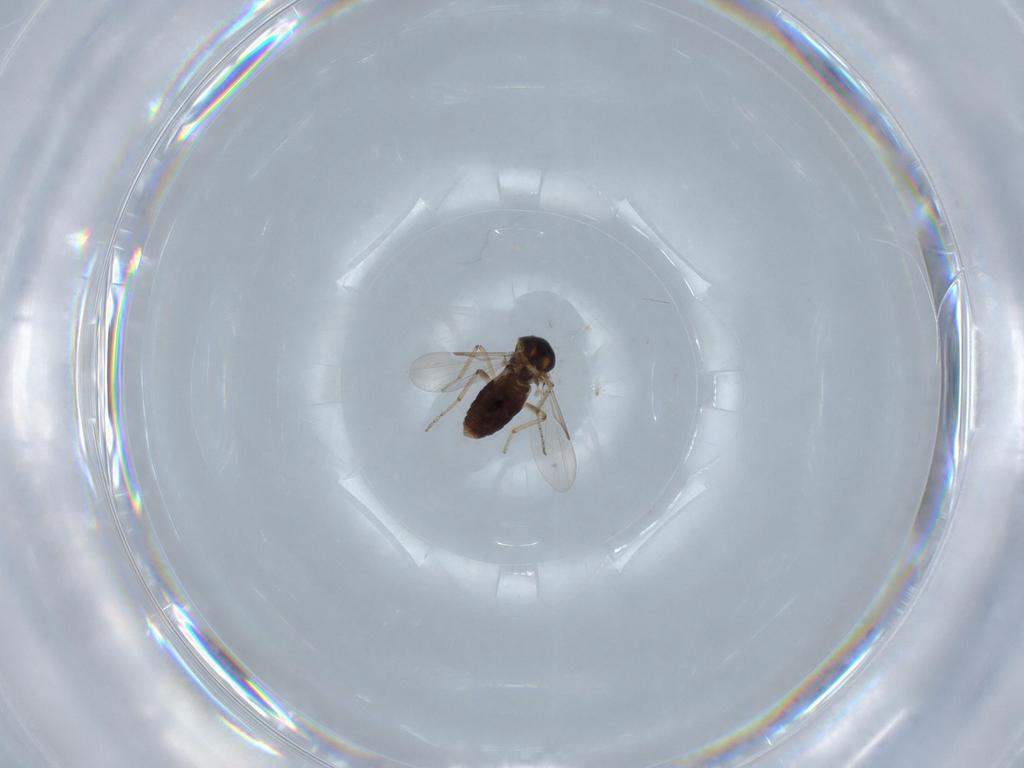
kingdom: Animalia
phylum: Arthropoda
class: Insecta
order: Diptera
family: Ceratopogonidae
